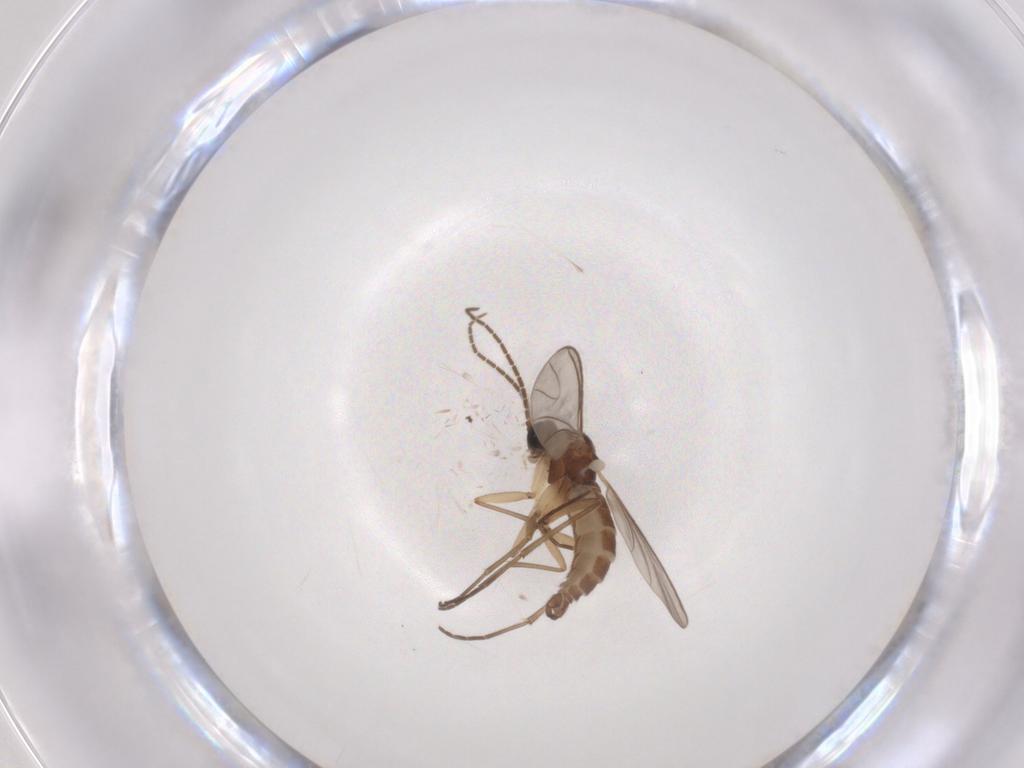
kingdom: Animalia
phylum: Arthropoda
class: Insecta
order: Diptera
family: Sciaridae
